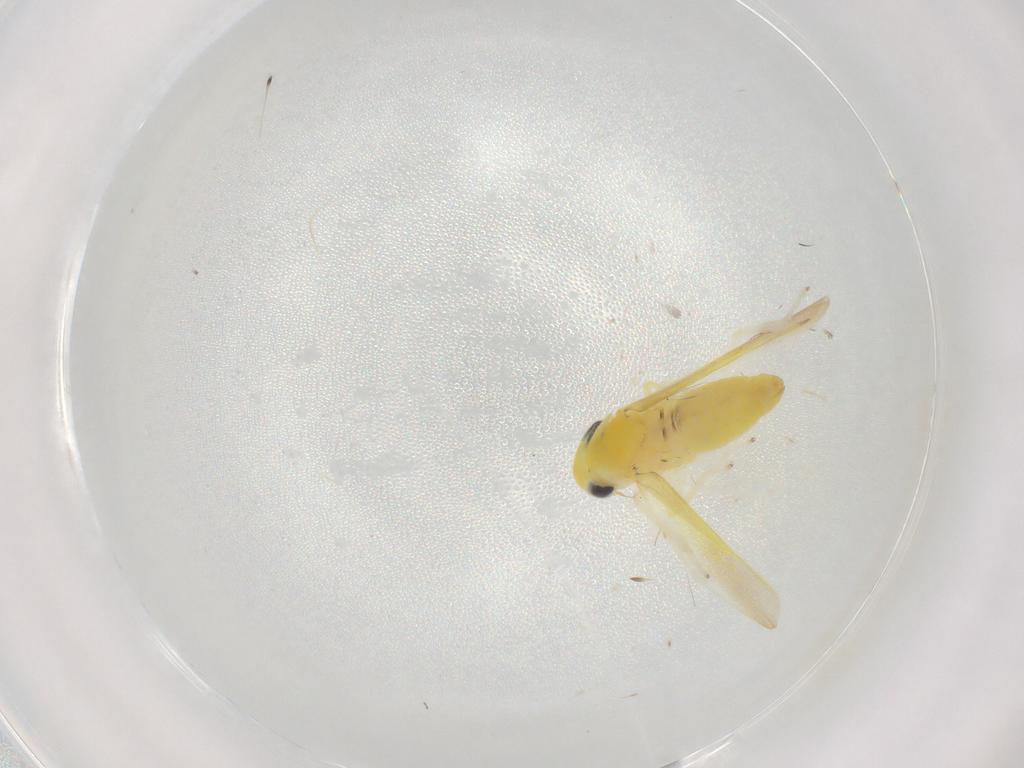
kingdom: Animalia
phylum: Arthropoda
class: Insecta
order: Hemiptera
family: Cicadellidae
